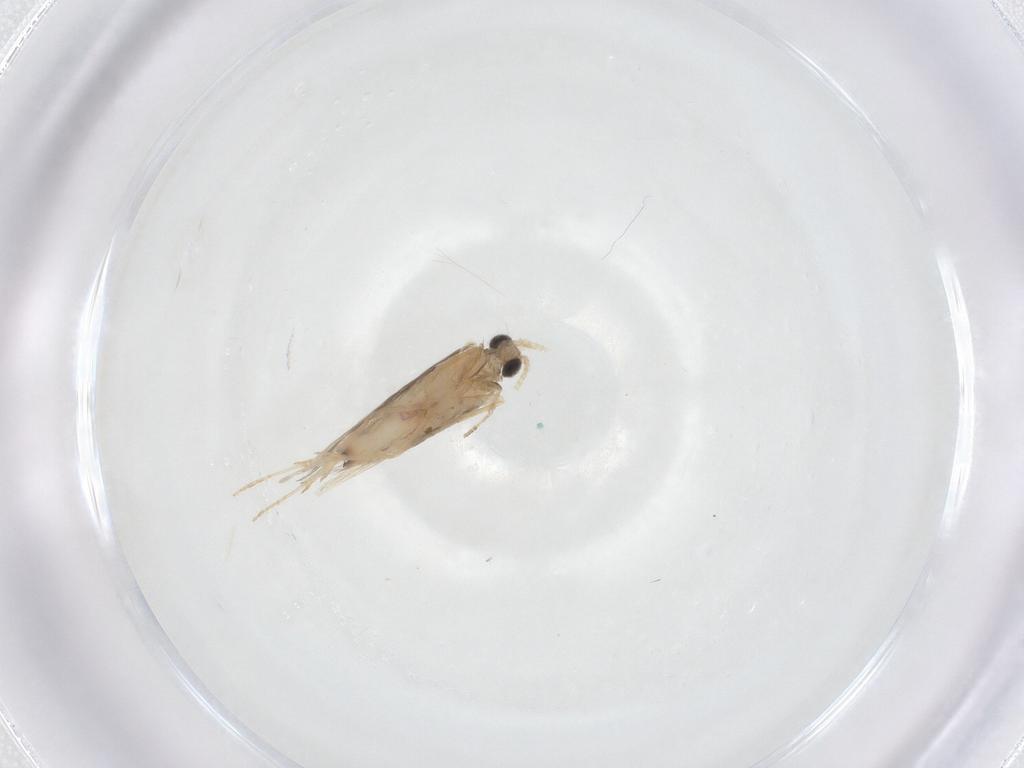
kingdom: Animalia
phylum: Arthropoda
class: Insecta
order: Trichoptera
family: Hydroptilidae
